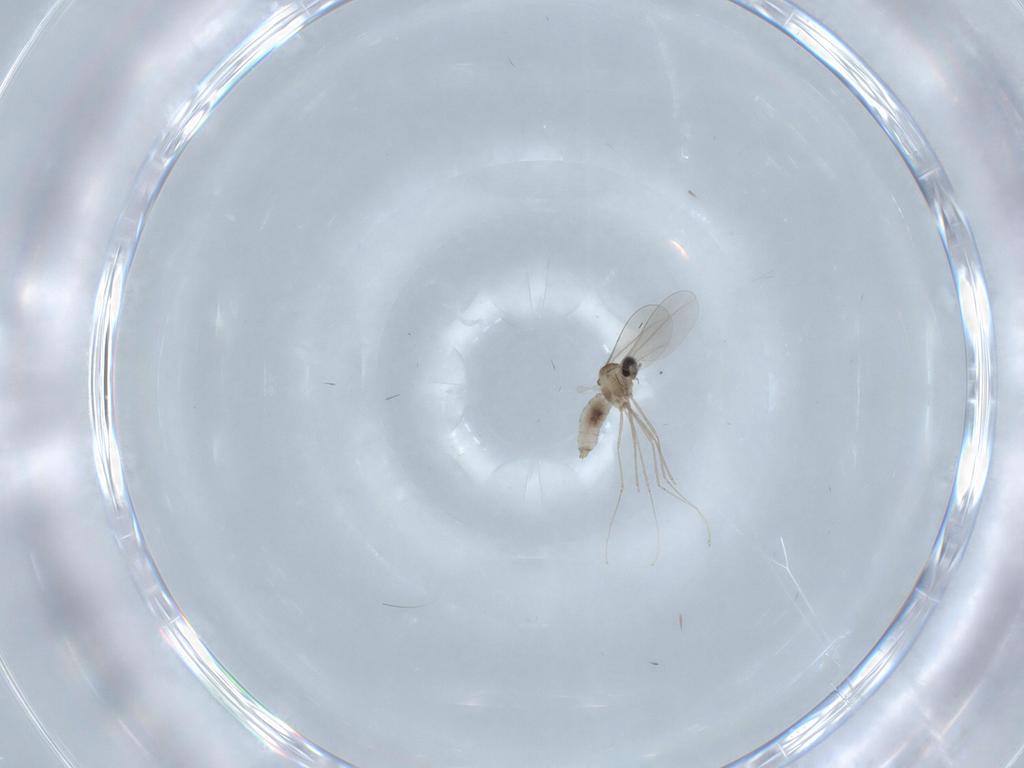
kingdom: Animalia
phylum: Arthropoda
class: Insecta
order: Diptera
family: Cecidomyiidae
